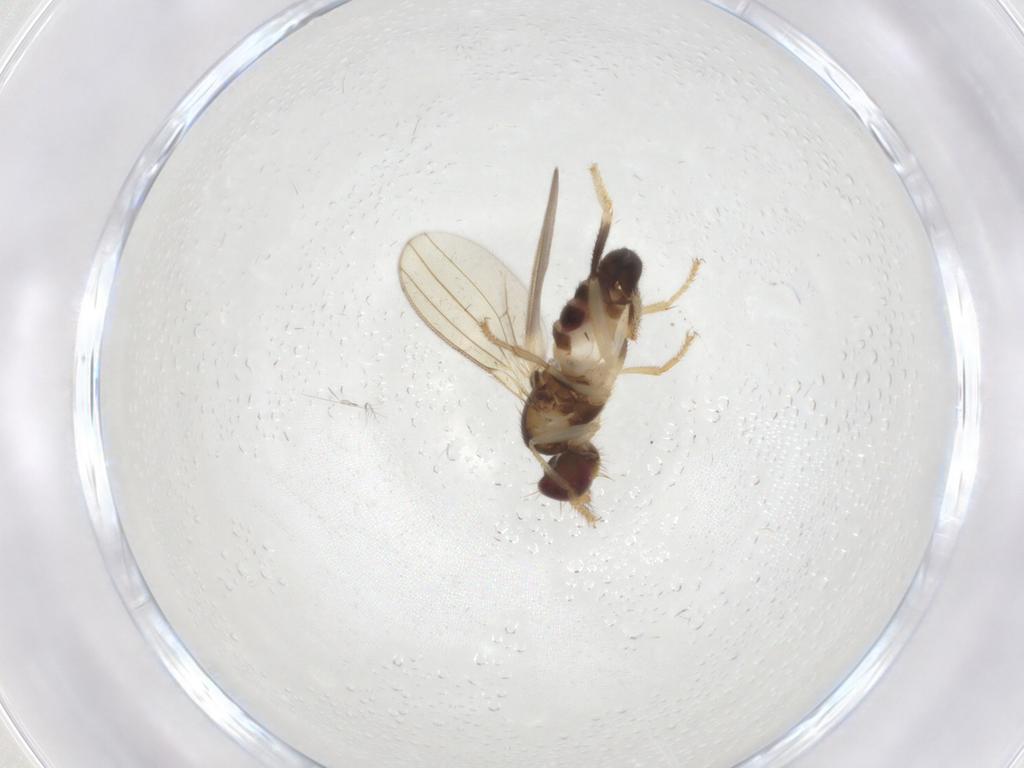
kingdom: Animalia
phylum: Arthropoda
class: Insecta
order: Diptera
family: Periscelididae
